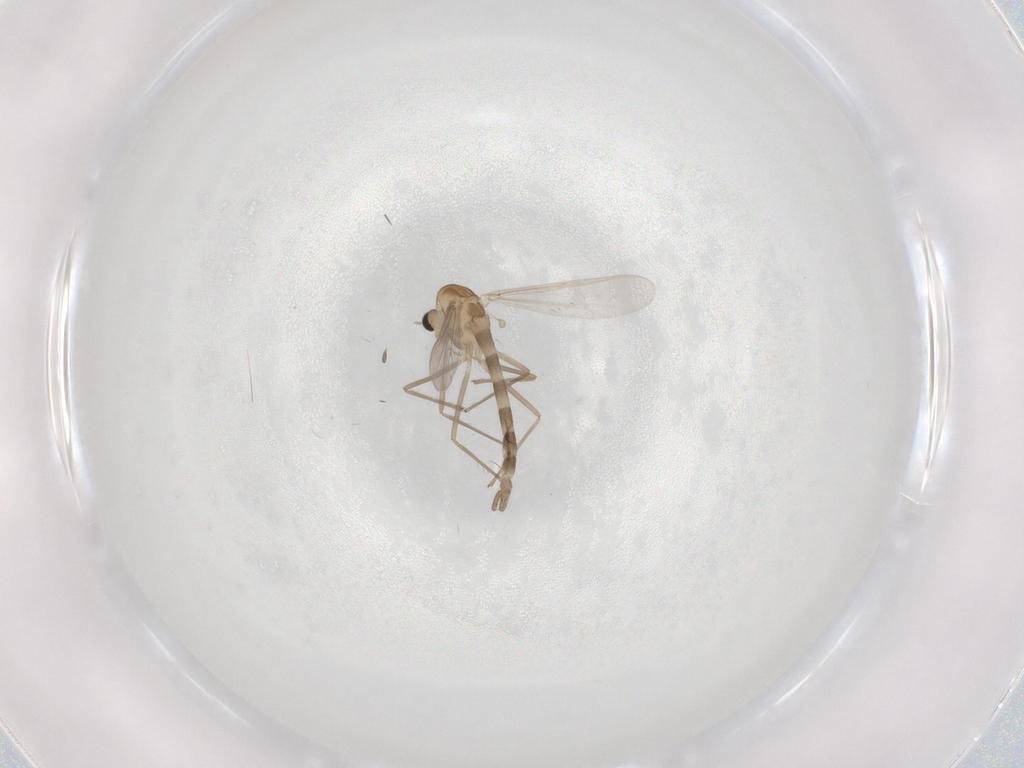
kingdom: Animalia
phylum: Arthropoda
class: Insecta
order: Diptera
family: Chironomidae
